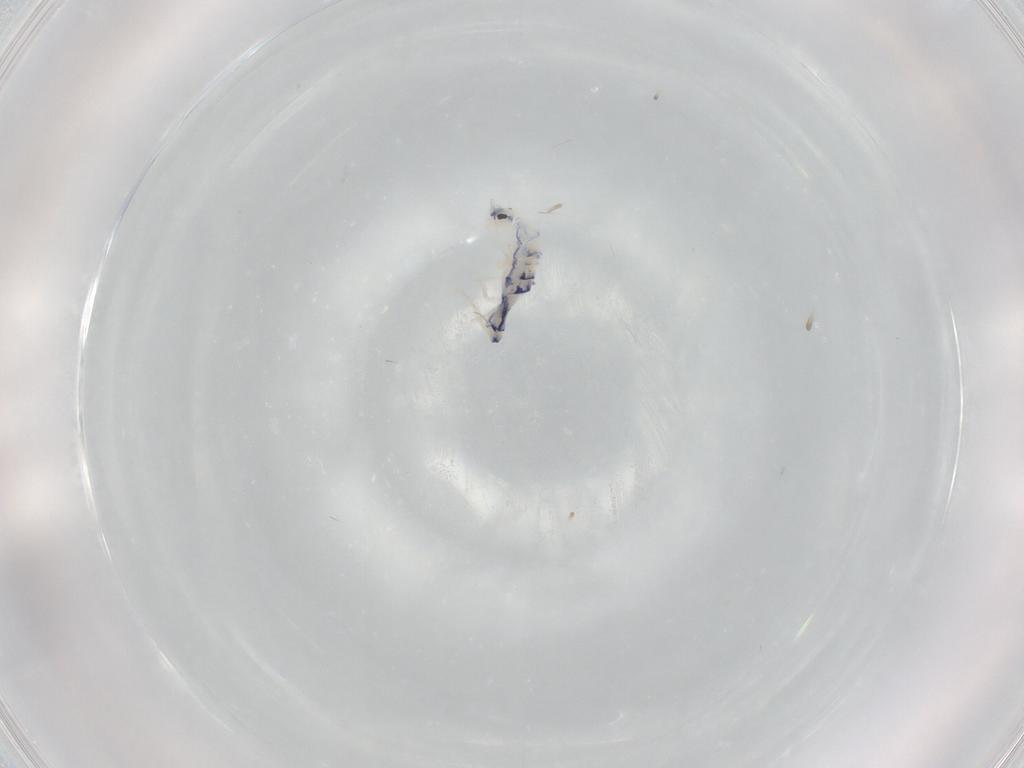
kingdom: Animalia
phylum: Arthropoda
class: Collembola
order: Entomobryomorpha
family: Entomobryidae
